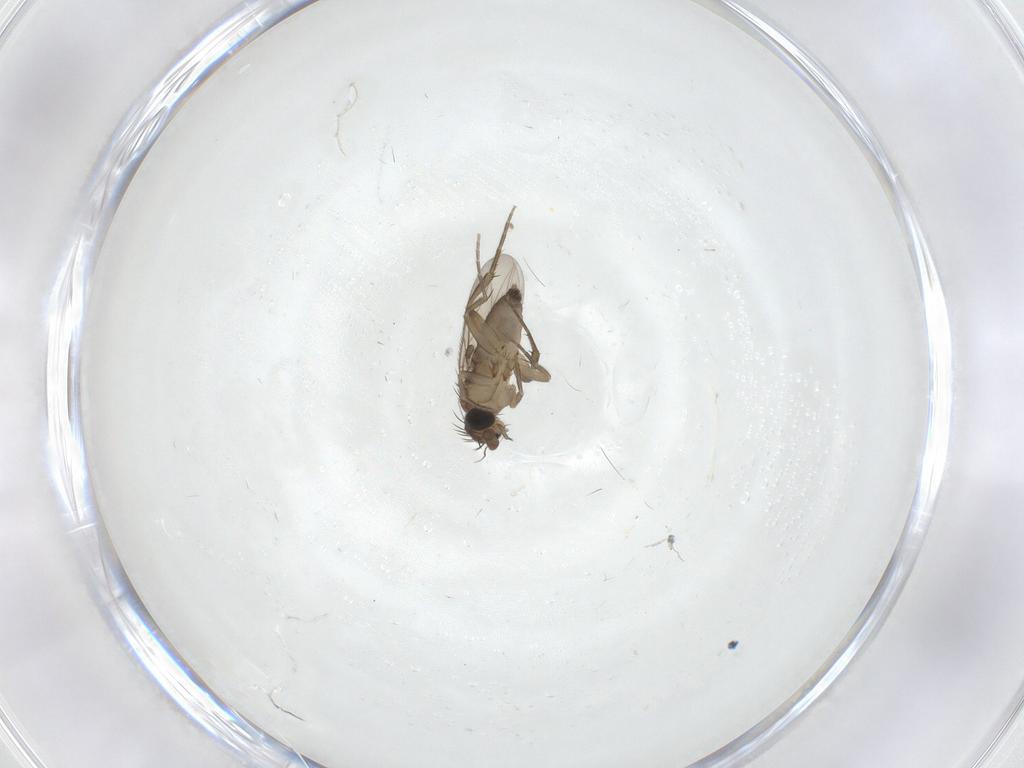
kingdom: Animalia
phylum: Arthropoda
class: Insecta
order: Diptera
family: Phoridae
